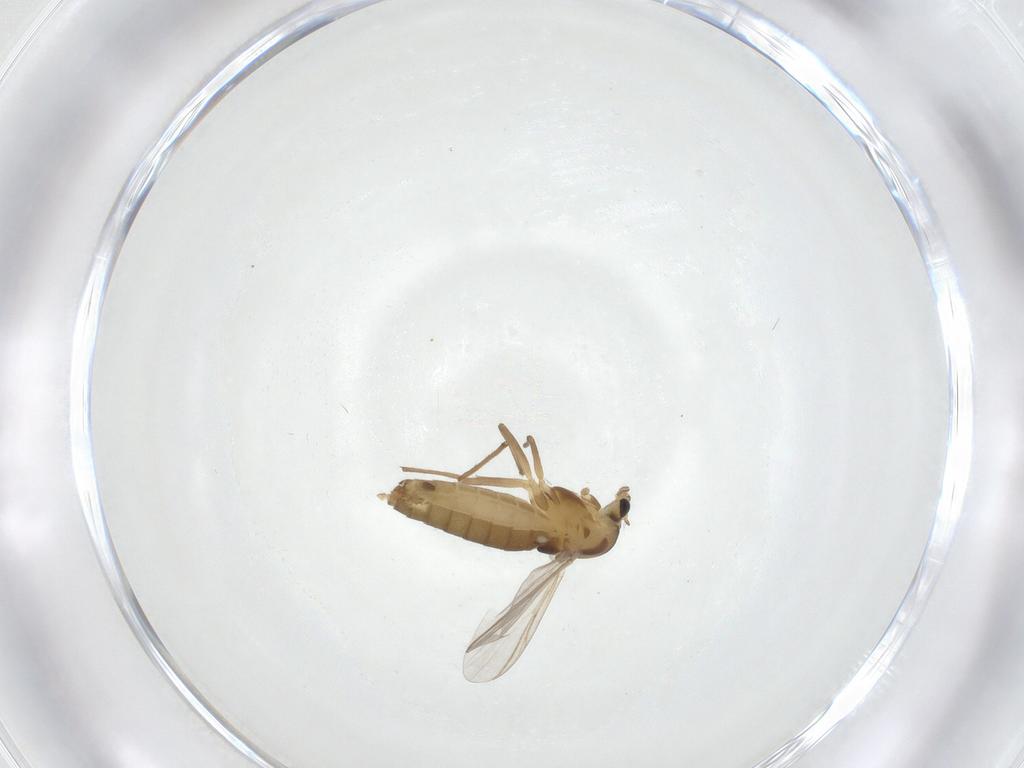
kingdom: Animalia
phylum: Arthropoda
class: Insecta
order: Diptera
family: Chironomidae
